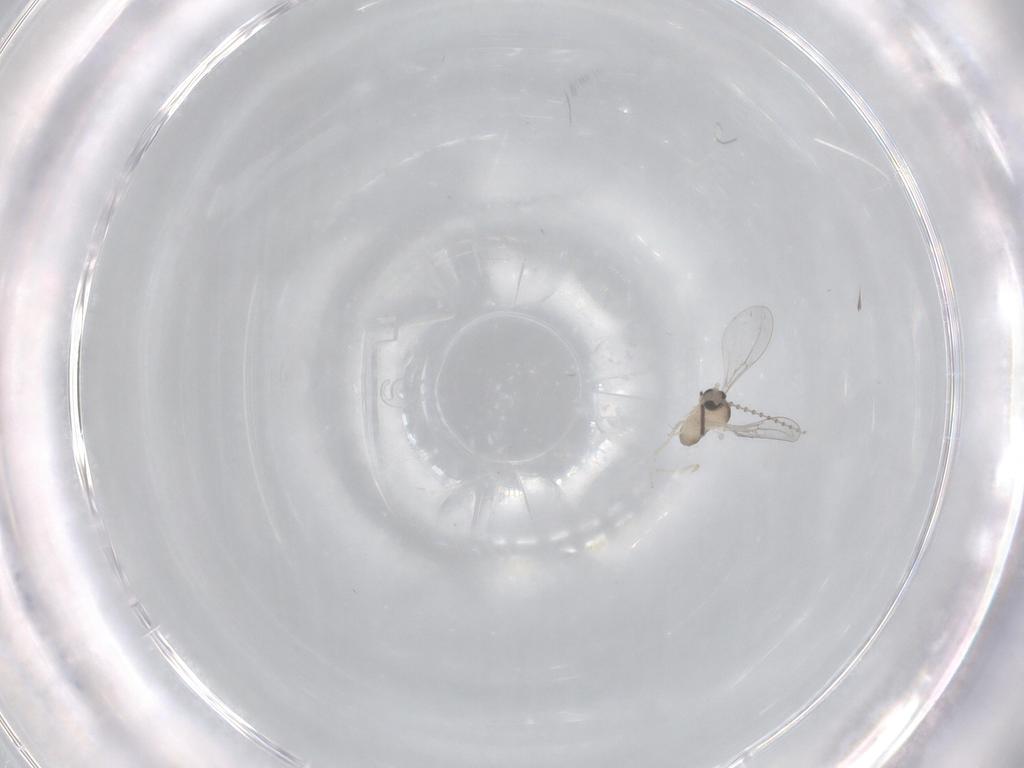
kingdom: Animalia
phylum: Arthropoda
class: Insecta
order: Diptera
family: Cecidomyiidae
